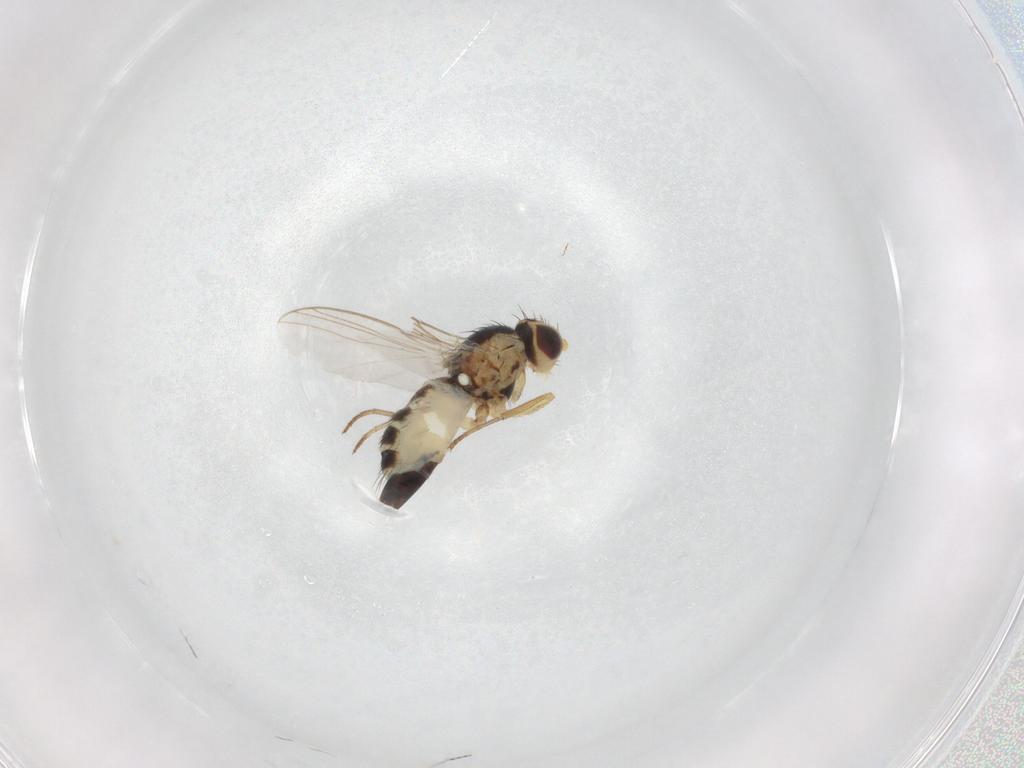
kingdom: Animalia
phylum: Arthropoda
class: Insecta
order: Diptera
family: Agromyzidae
